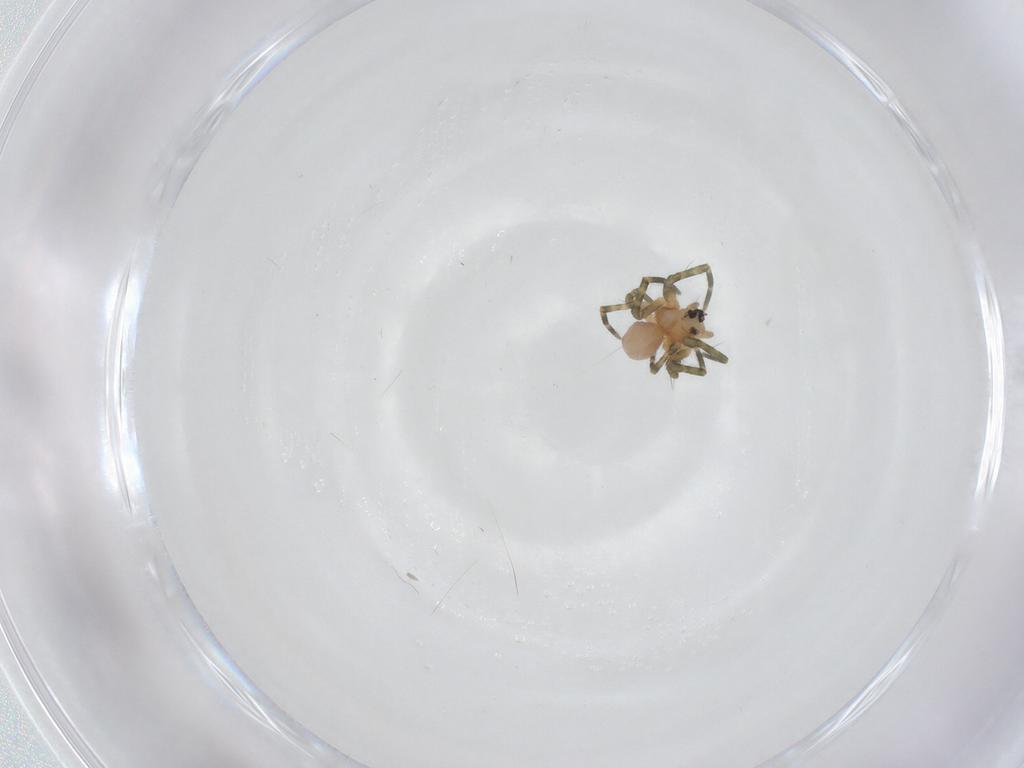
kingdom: Animalia
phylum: Arthropoda
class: Arachnida
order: Araneae
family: Linyphiidae
